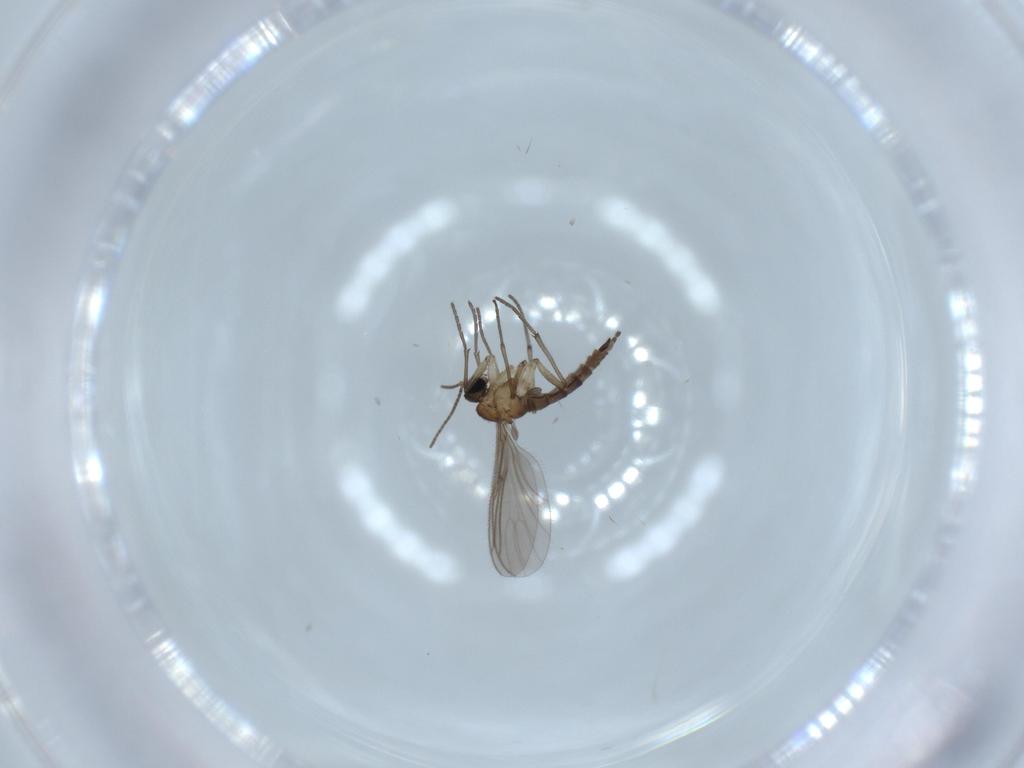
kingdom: Animalia
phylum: Arthropoda
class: Insecta
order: Diptera
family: Sciaridae
